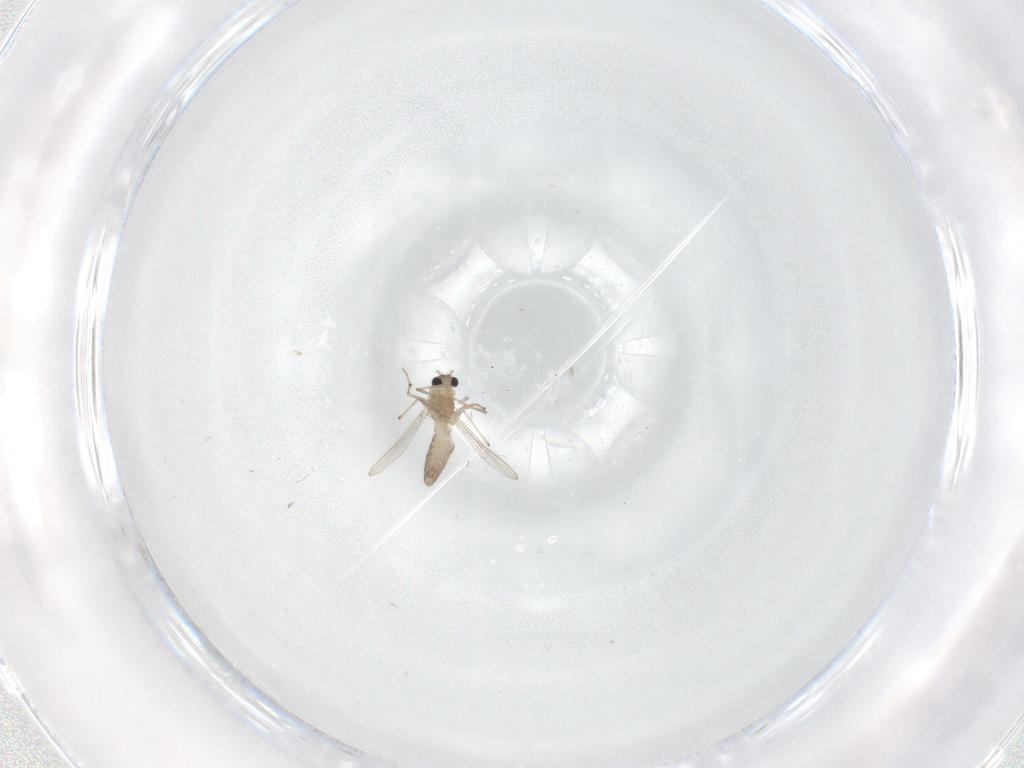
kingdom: Animalia
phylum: Arthropoda
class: Insecta
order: Diptera
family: Chironomidae
